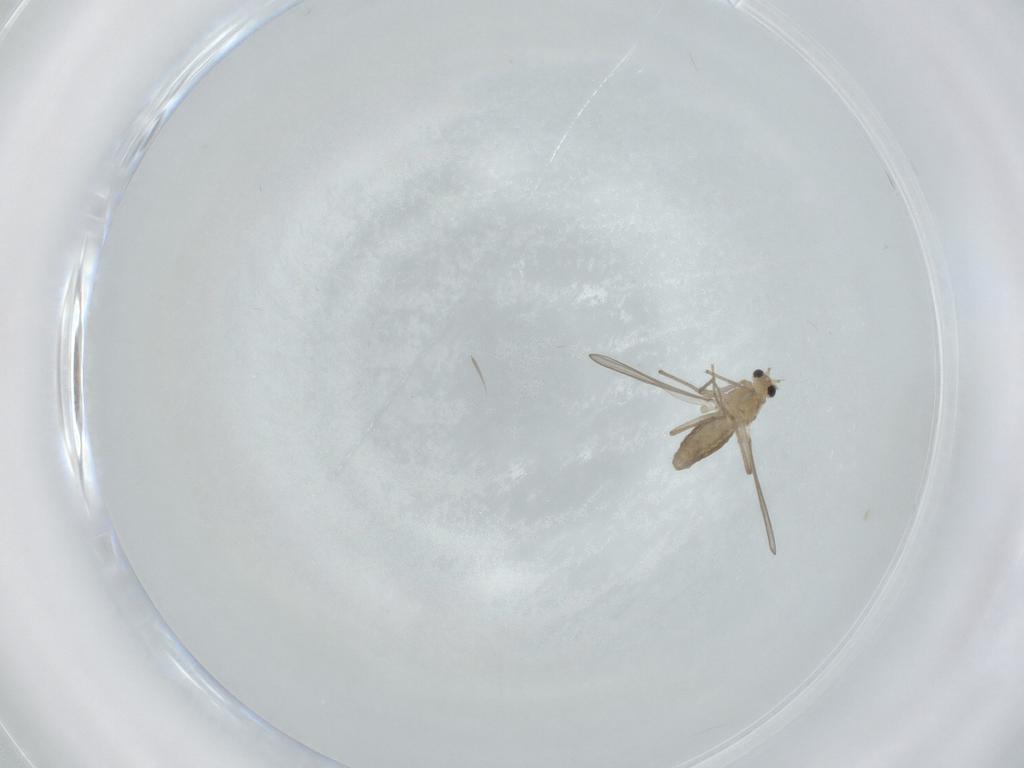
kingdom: Animalia
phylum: Arthropoda
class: Insecta
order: Diptera
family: Chironomidae
